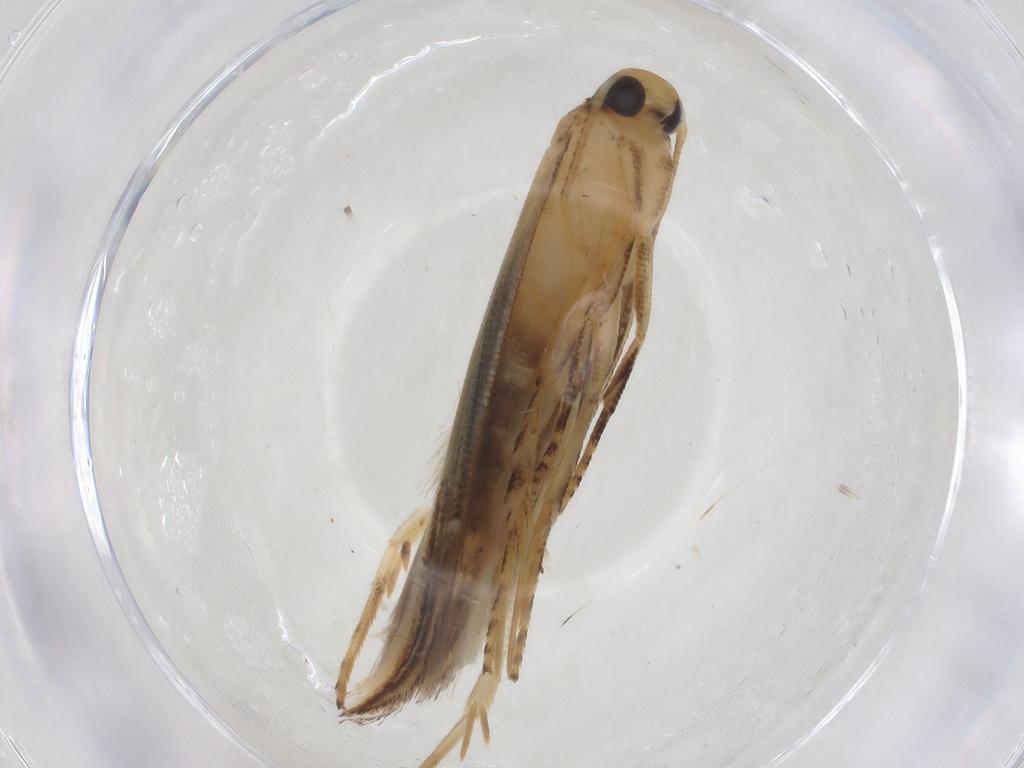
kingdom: Animalia
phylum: Arthropoda
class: Insecta
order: Lepidoptera
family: Momphidae
